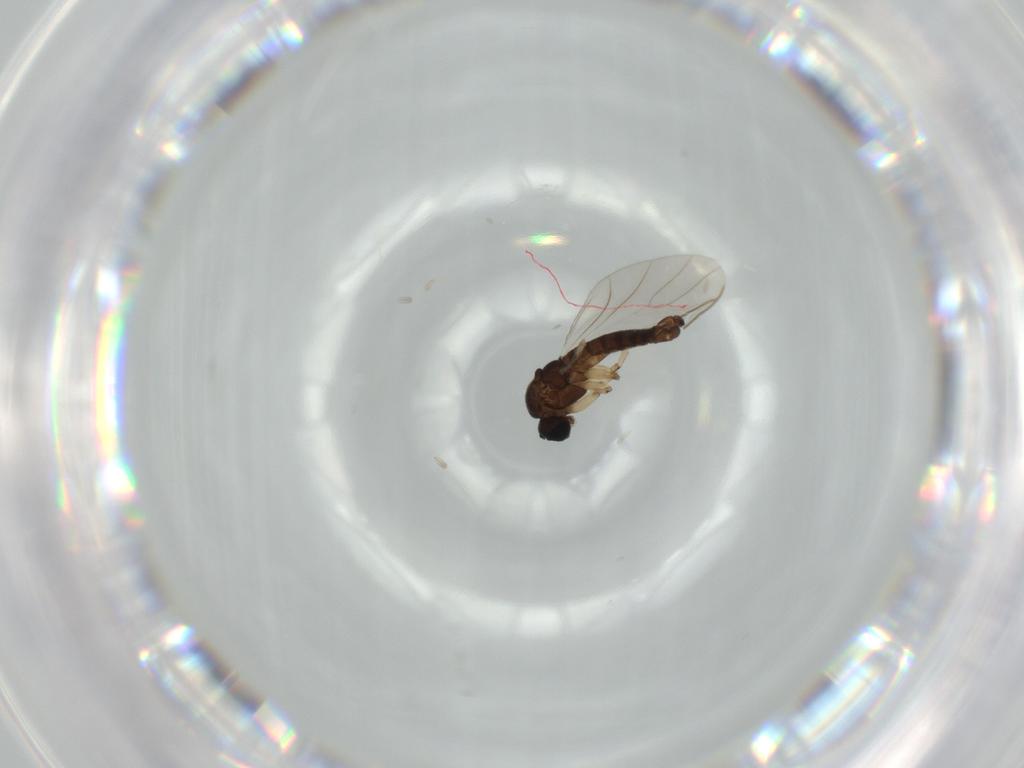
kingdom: Animalia
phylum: Arthropoda
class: Insecta
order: Diptera
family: Sciaridae
